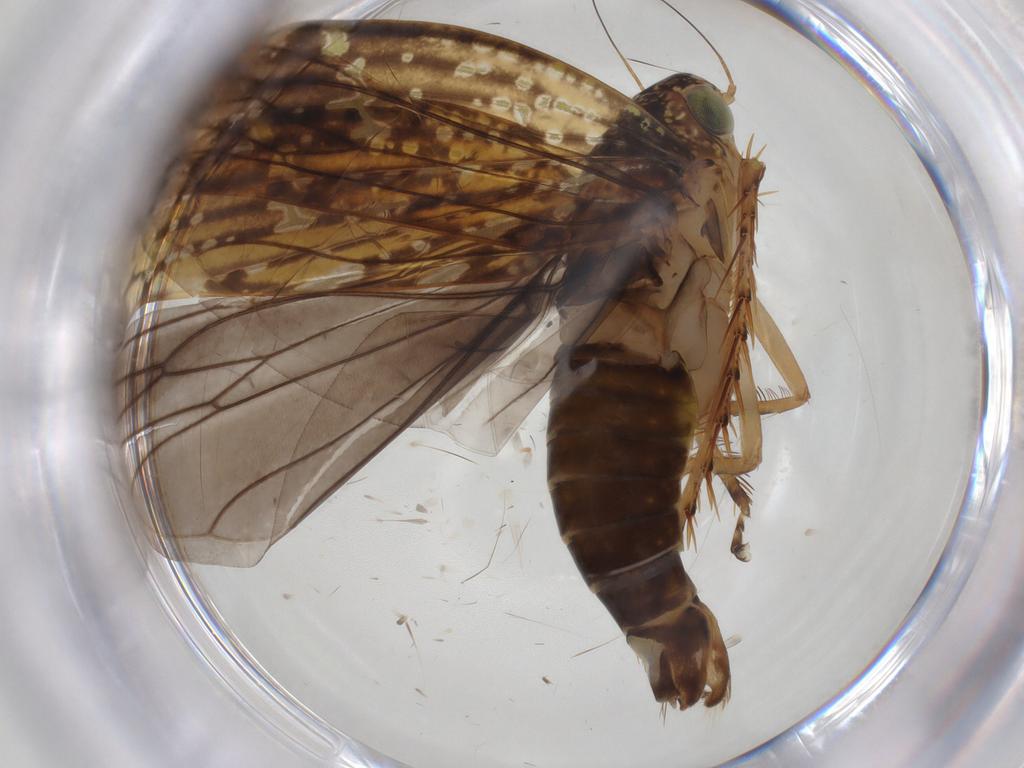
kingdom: Animalia
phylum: Arthropoda
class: Insecta
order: Hemiptera
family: Cicadellidae
